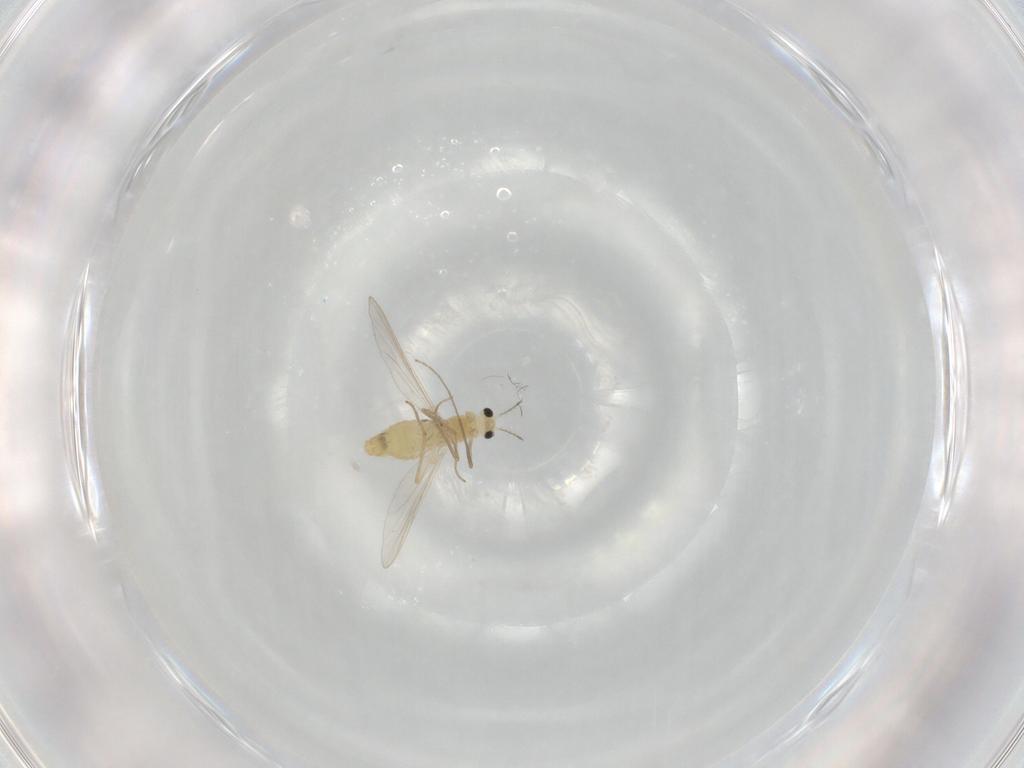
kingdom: Animalia
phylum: Arthropoda
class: Insecta
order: Diptera
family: Chironomidae
